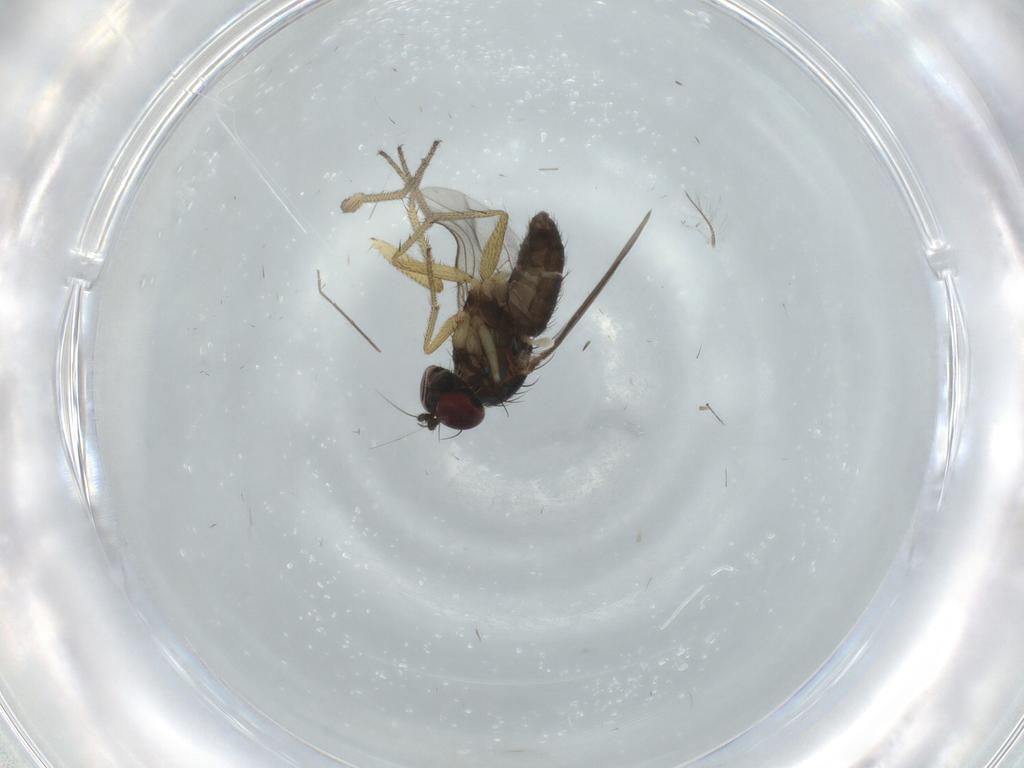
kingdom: Animalia
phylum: Arthropoda
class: Insecta
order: Diptera
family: Dolichopodidae
